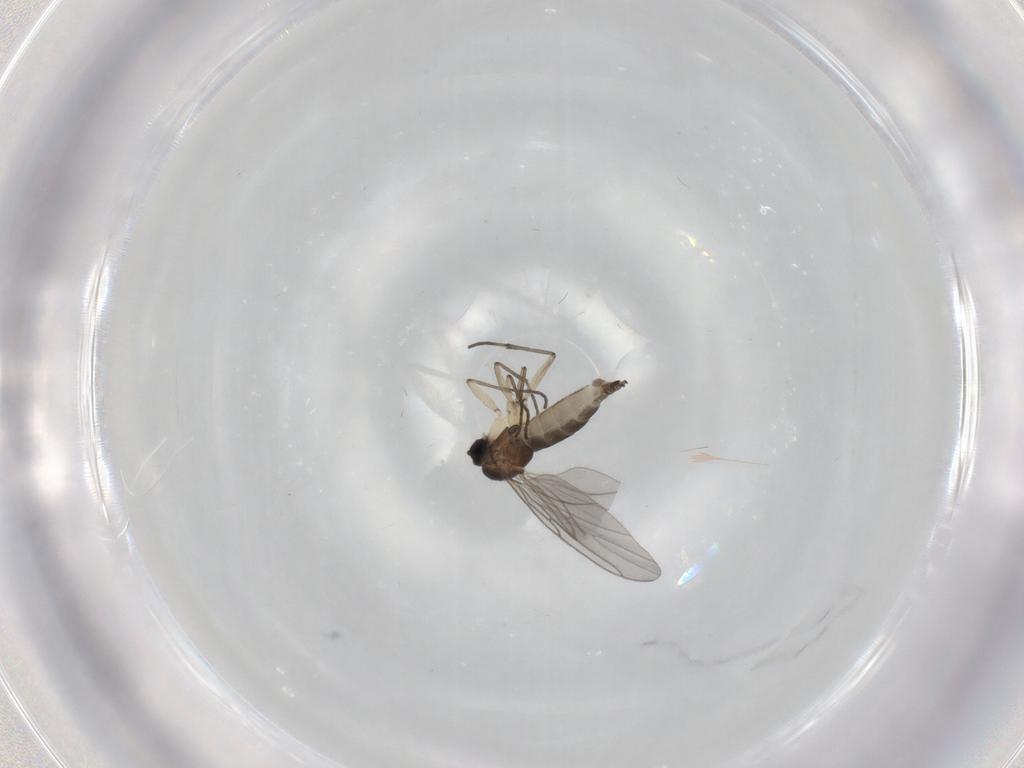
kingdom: Animalia
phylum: Arthropoda
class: Insecta
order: Diptera
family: Sciaridae
